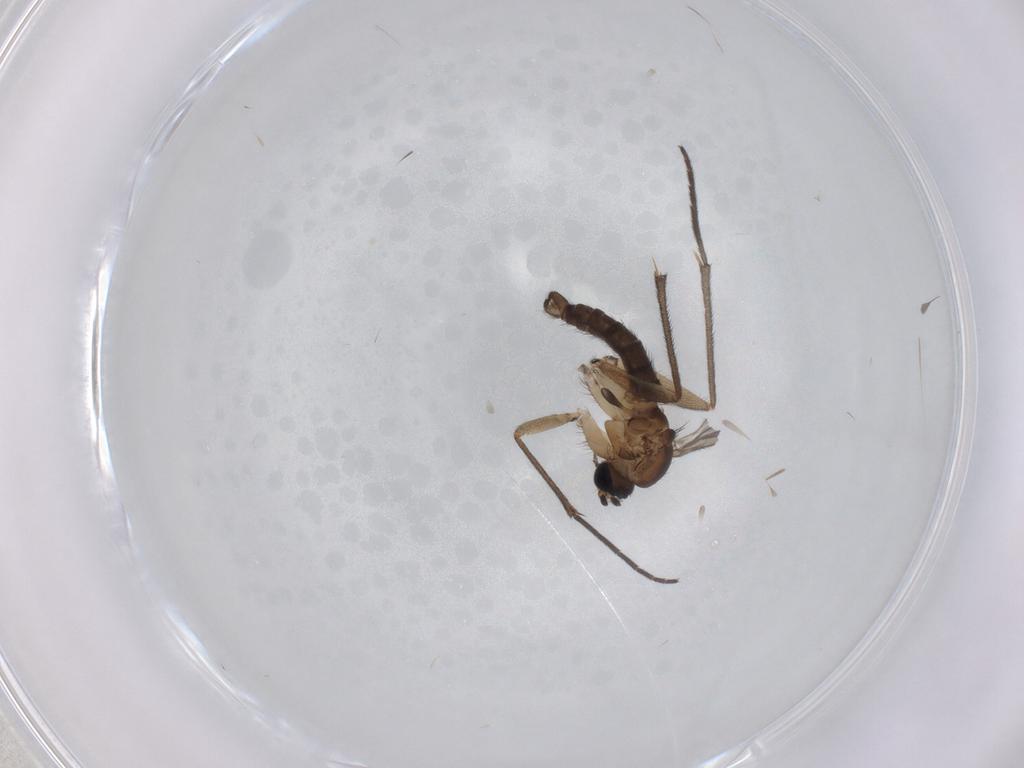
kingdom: Animalia
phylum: Arthropoda
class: Insecta
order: Diptera
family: Sciaridae
